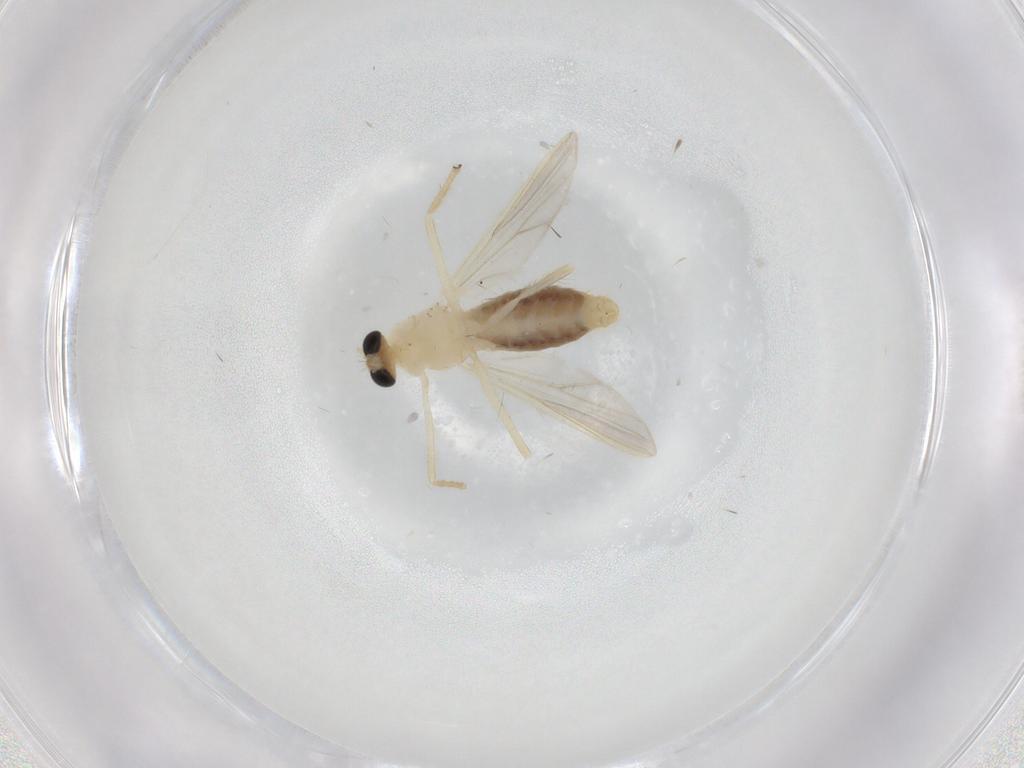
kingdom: Animalia
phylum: Arthropoda
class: Insecta
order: Diptera
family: Chironomidae
